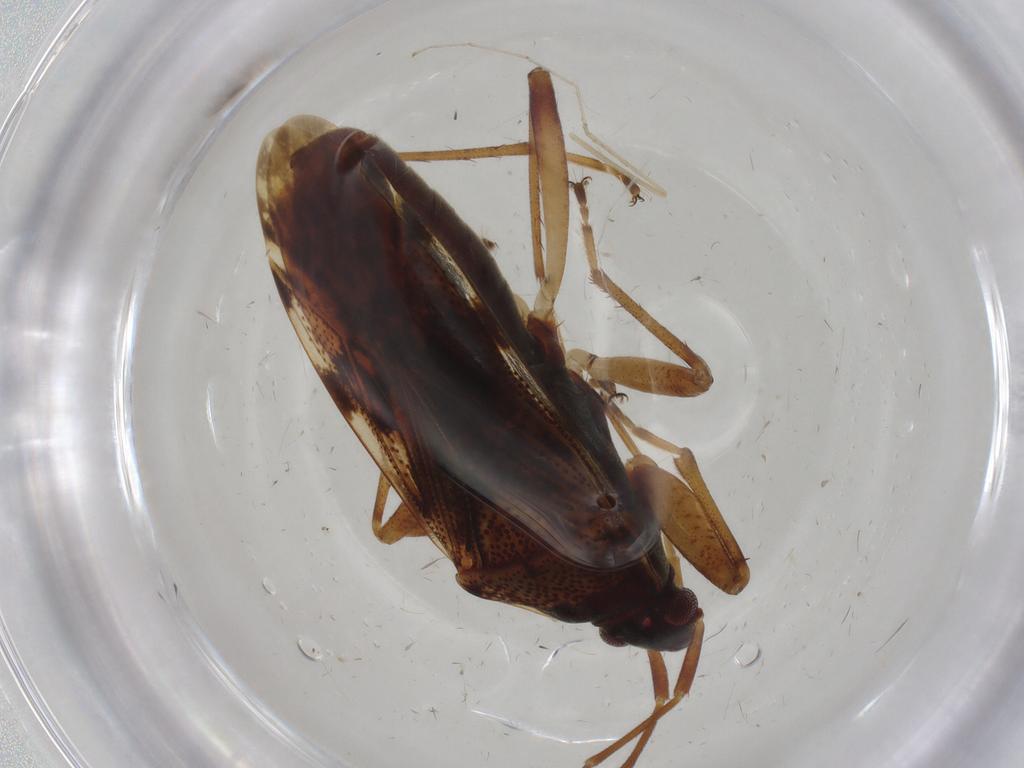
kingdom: Animalia
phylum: Arthropoda
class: Insecta
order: Hemiptera
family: Rhyparochromidae
